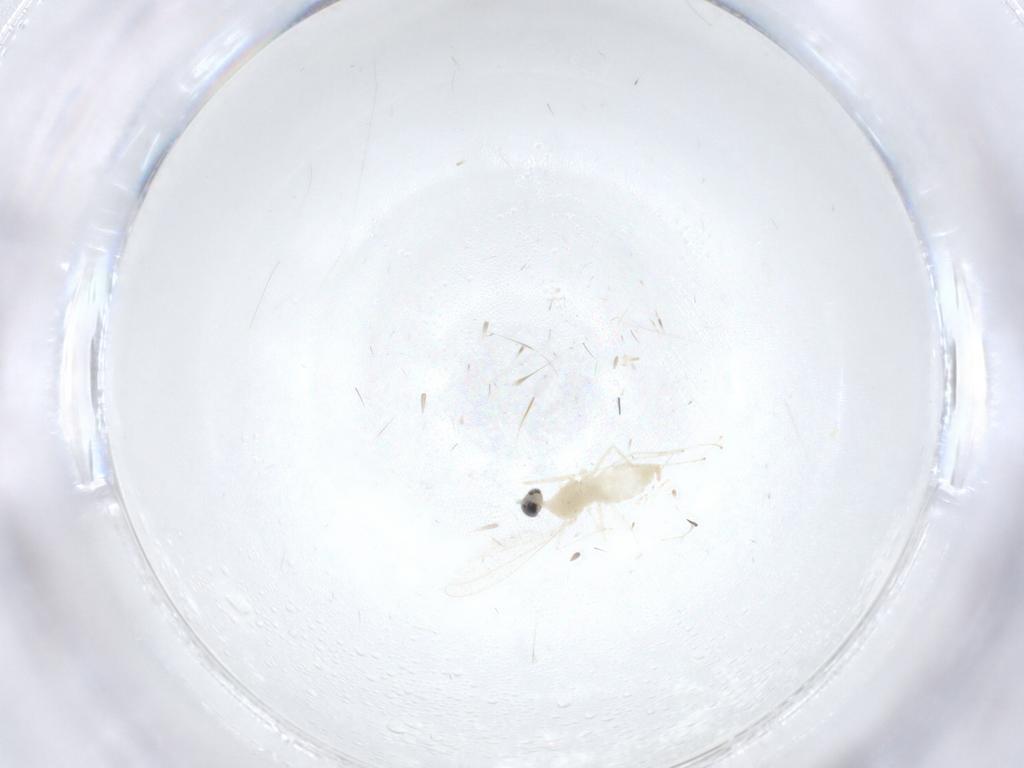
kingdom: Animalia
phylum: Arthropoda
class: Insecta
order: Diptera
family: Cecidomyiidae
